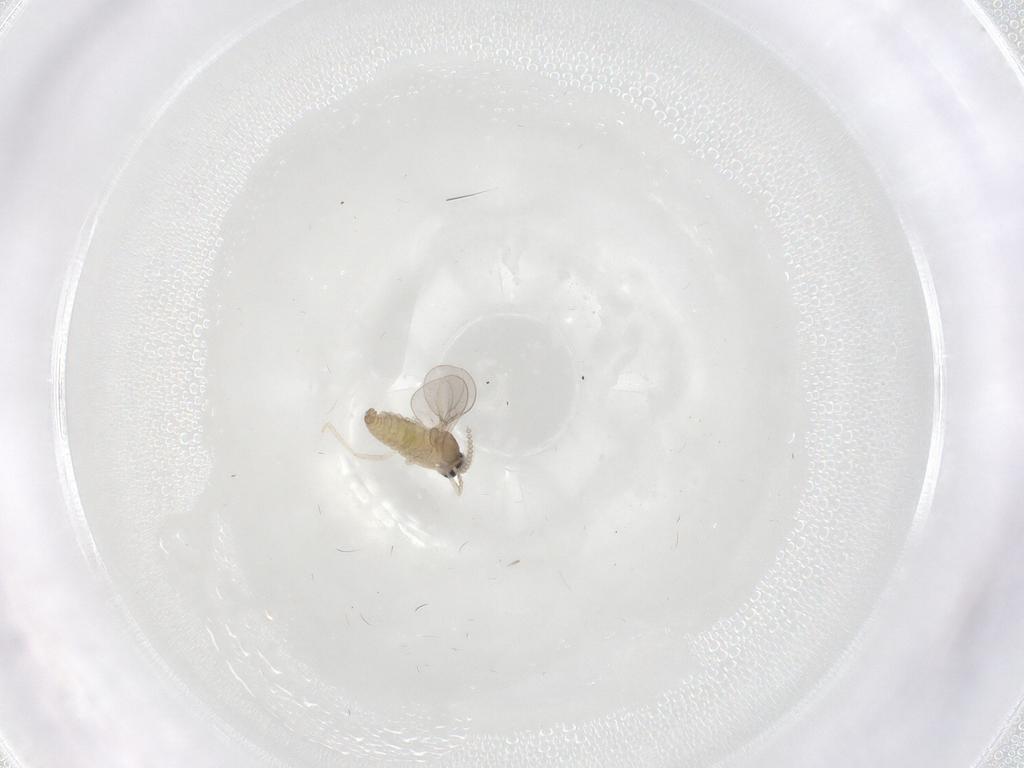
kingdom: Animalia
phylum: Arthropoda
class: Insecta
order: Diptera
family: Cecidomyiidae
